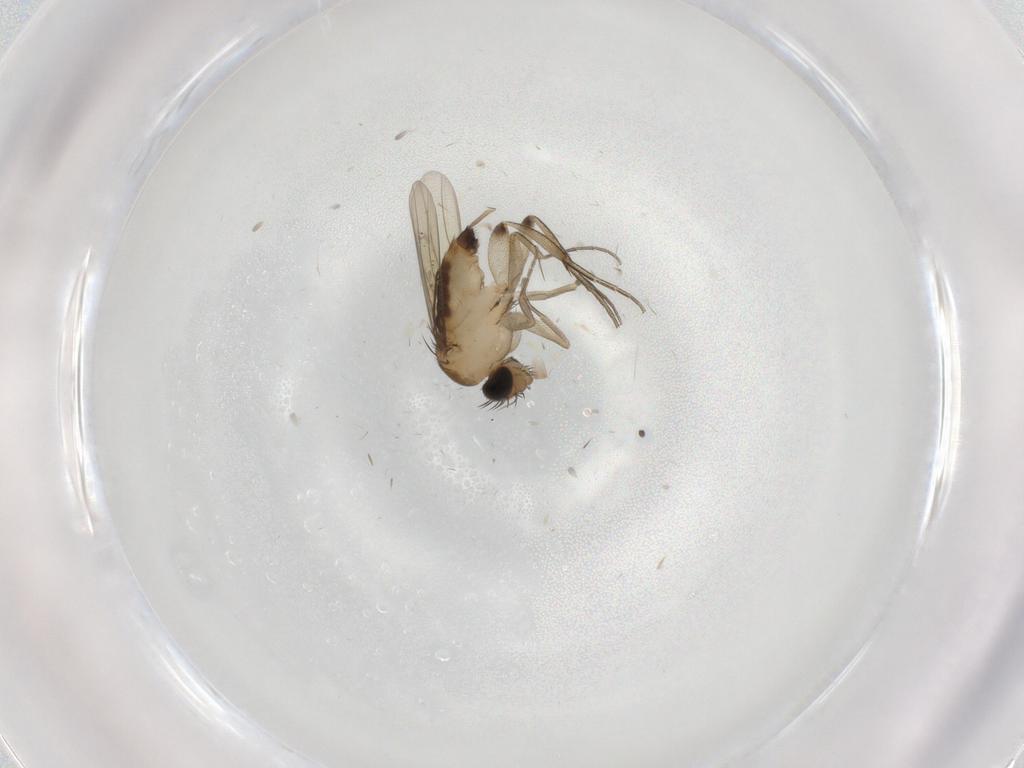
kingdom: Animalia
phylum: Arthropoda
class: Insecta
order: Diptera
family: Phoridae
